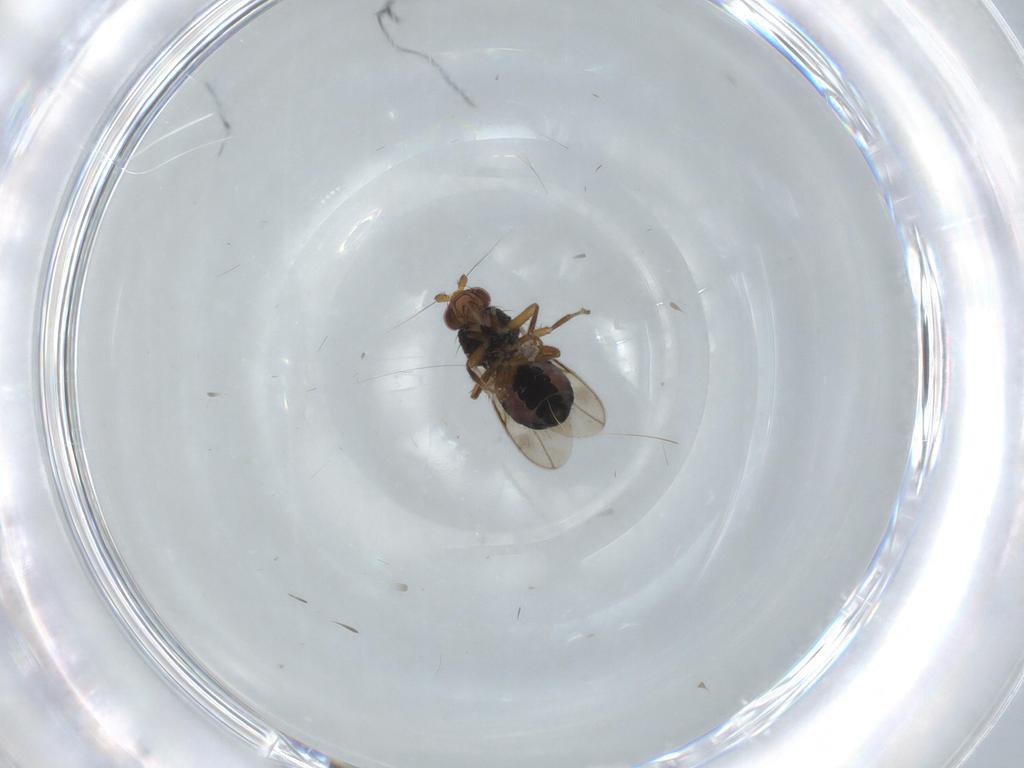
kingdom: Animalia
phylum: Arthropoda
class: Insecta
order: Diptera
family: Sphaeroceridae
